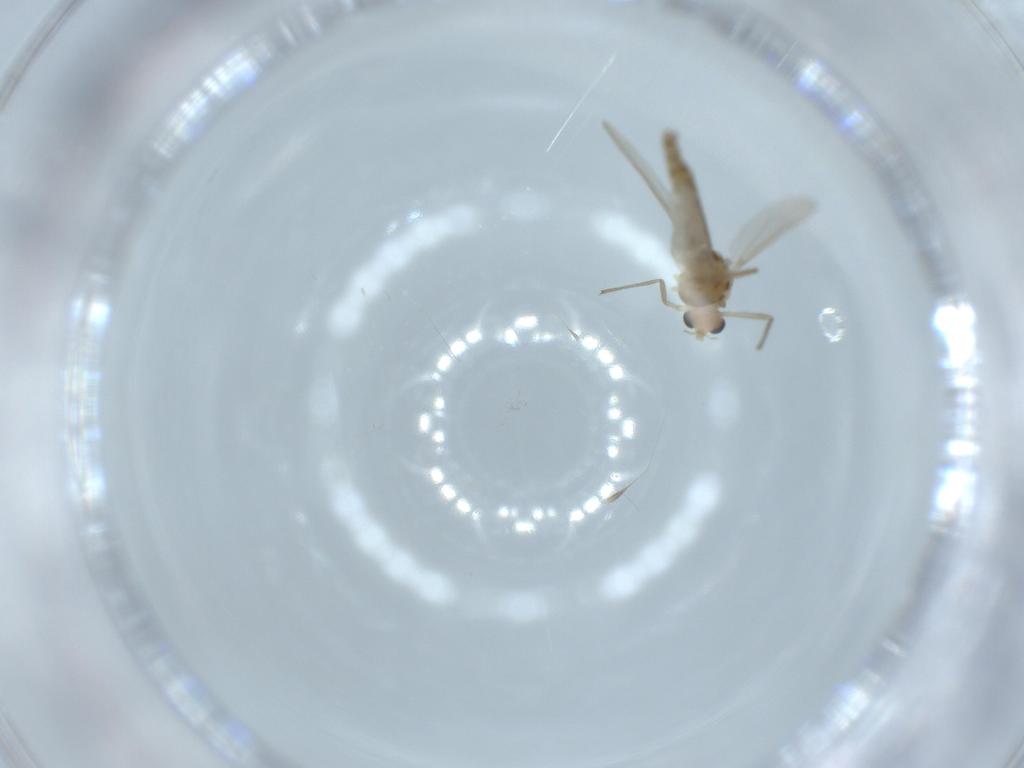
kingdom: Animalia
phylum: Arthropoda
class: Insecta
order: Diptera
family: Chironomidae
